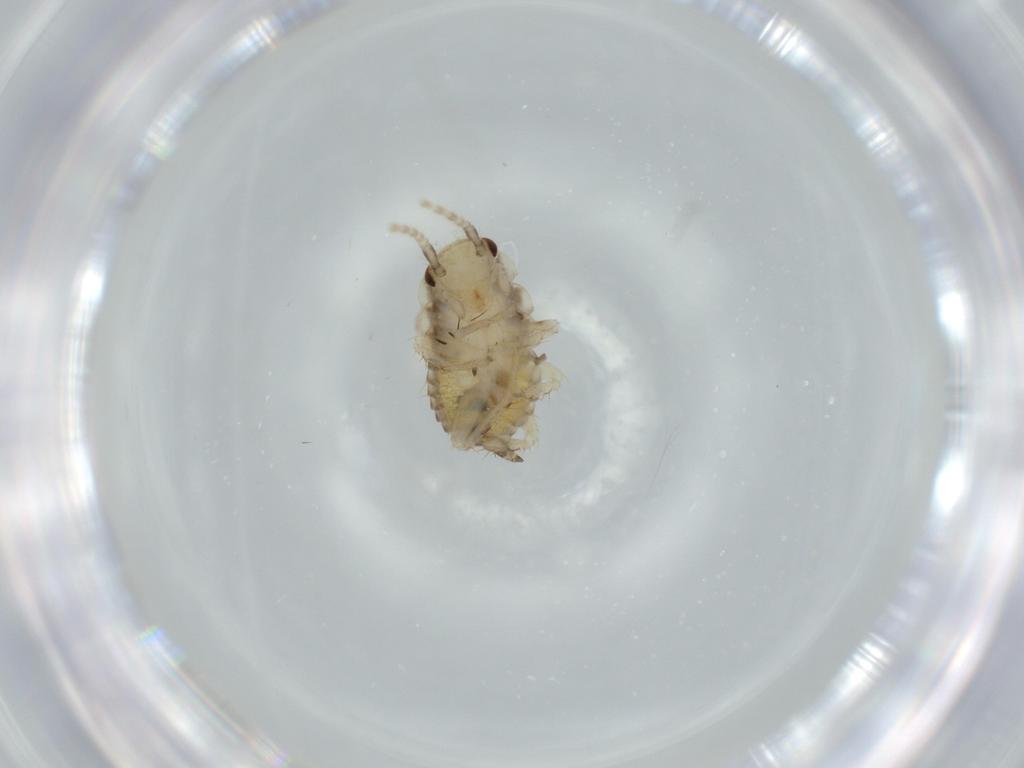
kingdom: Animalia
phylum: Arthropoda
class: Insecta
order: Blattodea
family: Ectobiidae
